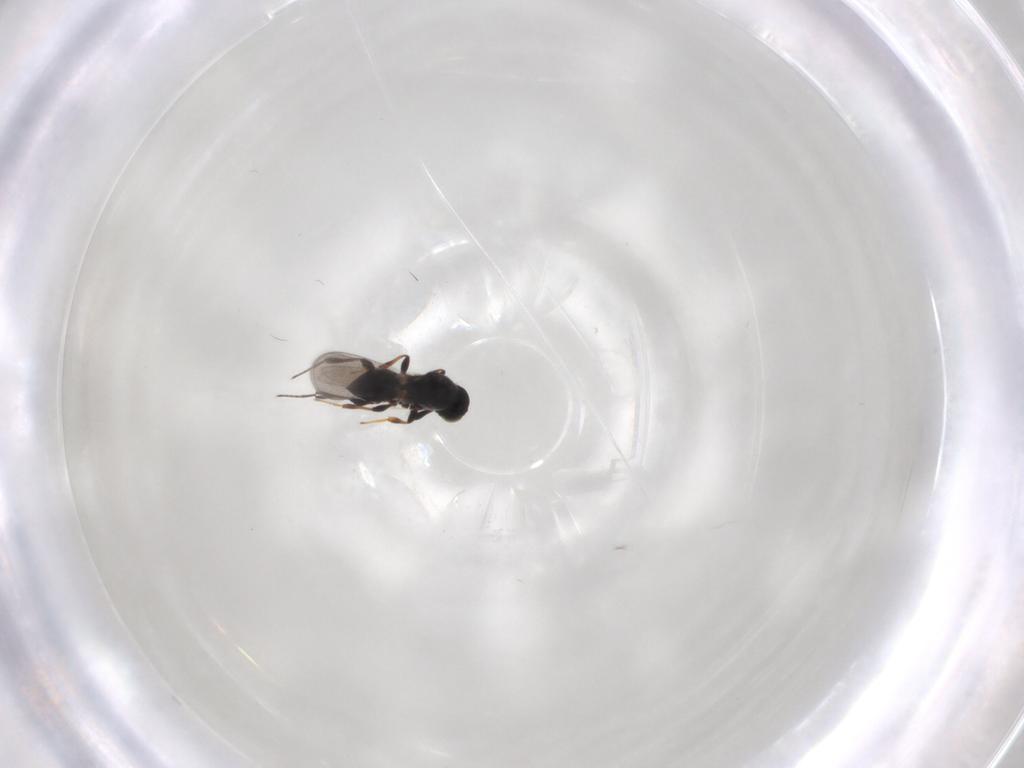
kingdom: Animalia
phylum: Arthropoda
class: Insecta
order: Hymenoptera
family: Platygastridae
